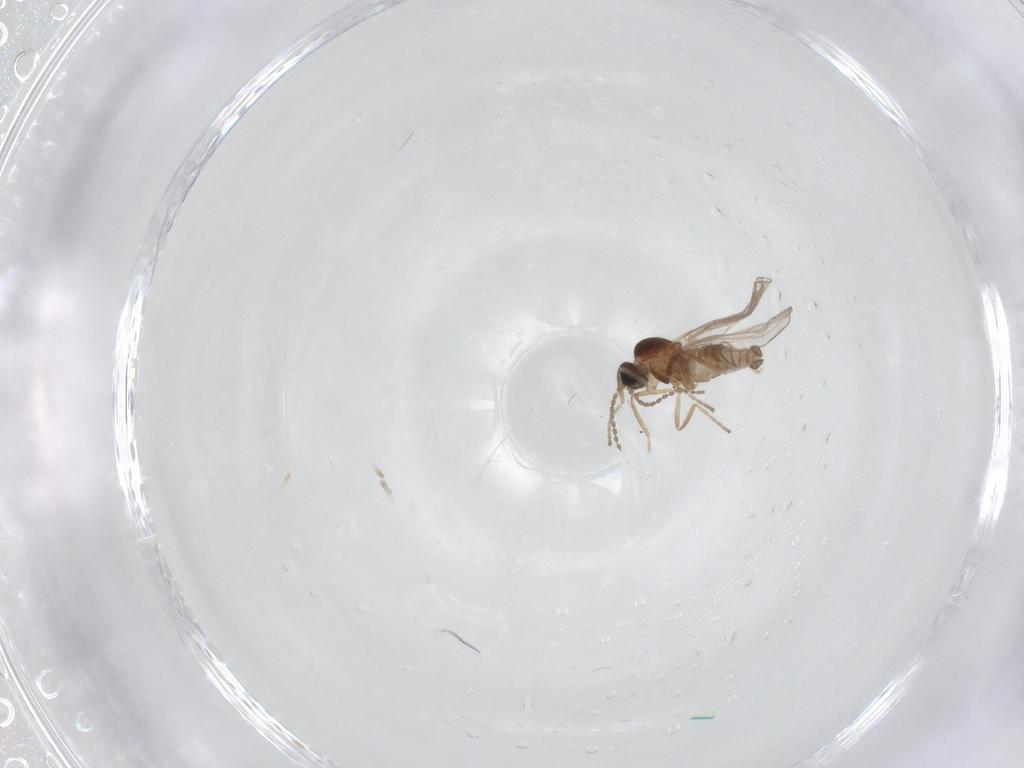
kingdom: Animalia
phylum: Arthropoda
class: Insecta
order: Diptera
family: Cecidomyiidae
